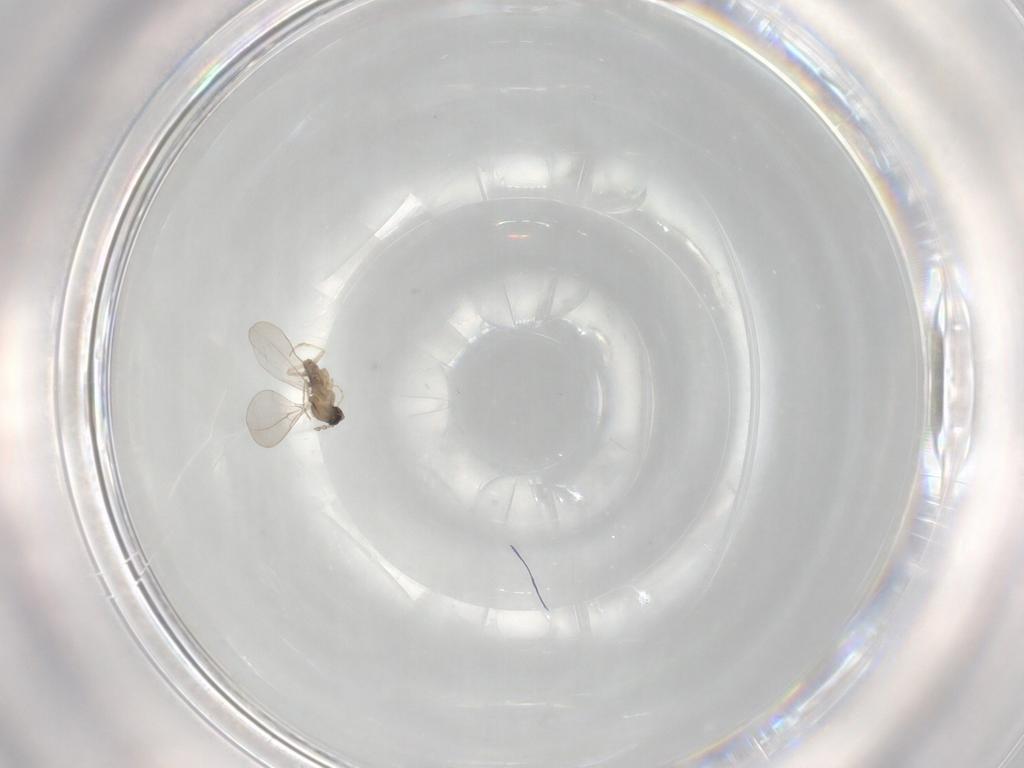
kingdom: Animalia
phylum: Arthropoda
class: Insecta
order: Diptera
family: Cecidomyiidae
